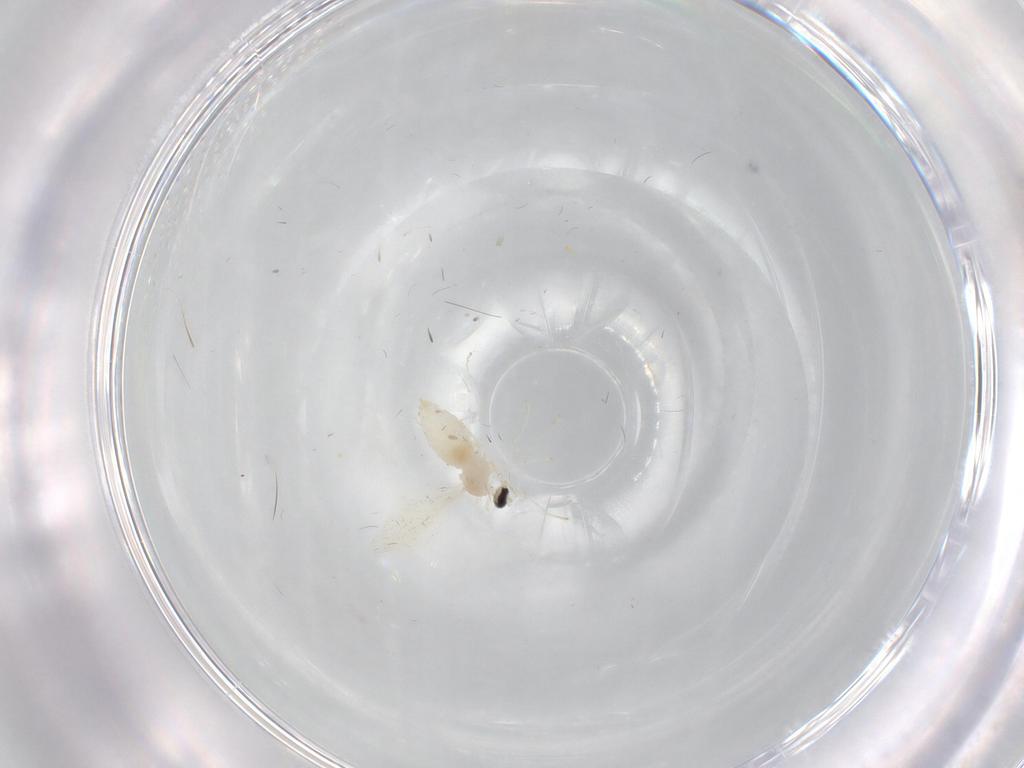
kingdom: Animalia
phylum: Arthropoda
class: Insecta
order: Diptera
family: Cecidomyiidae
